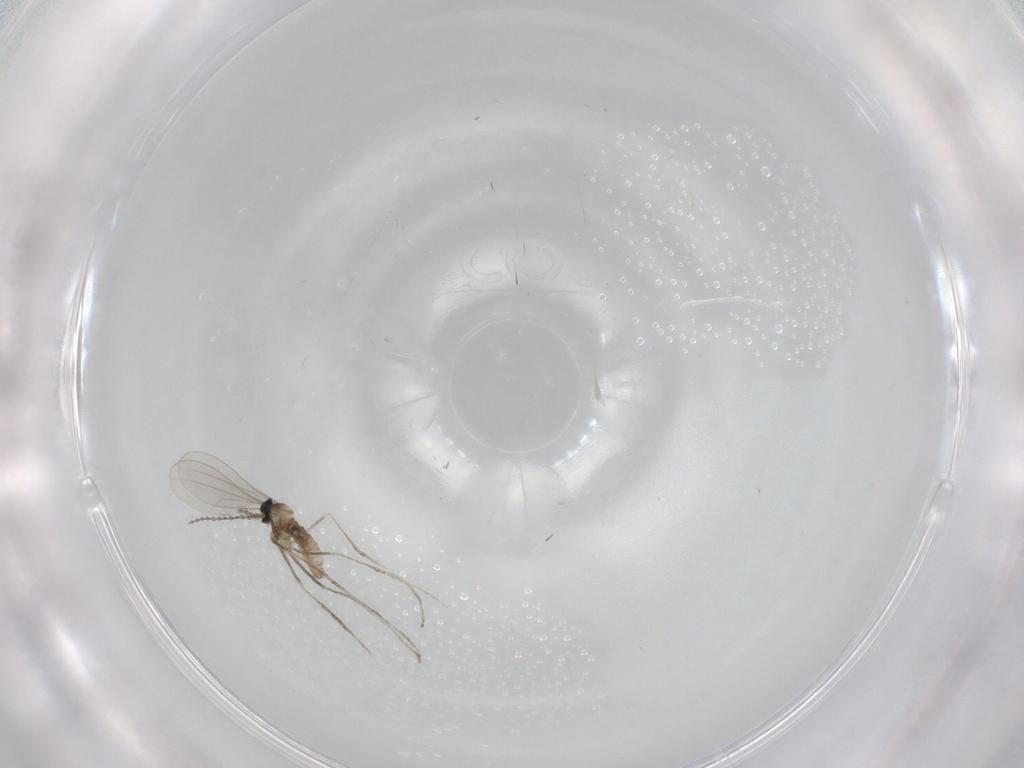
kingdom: Animalia
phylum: Arthropoda
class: Insecta
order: Diptera
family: Cecidomyiidae
